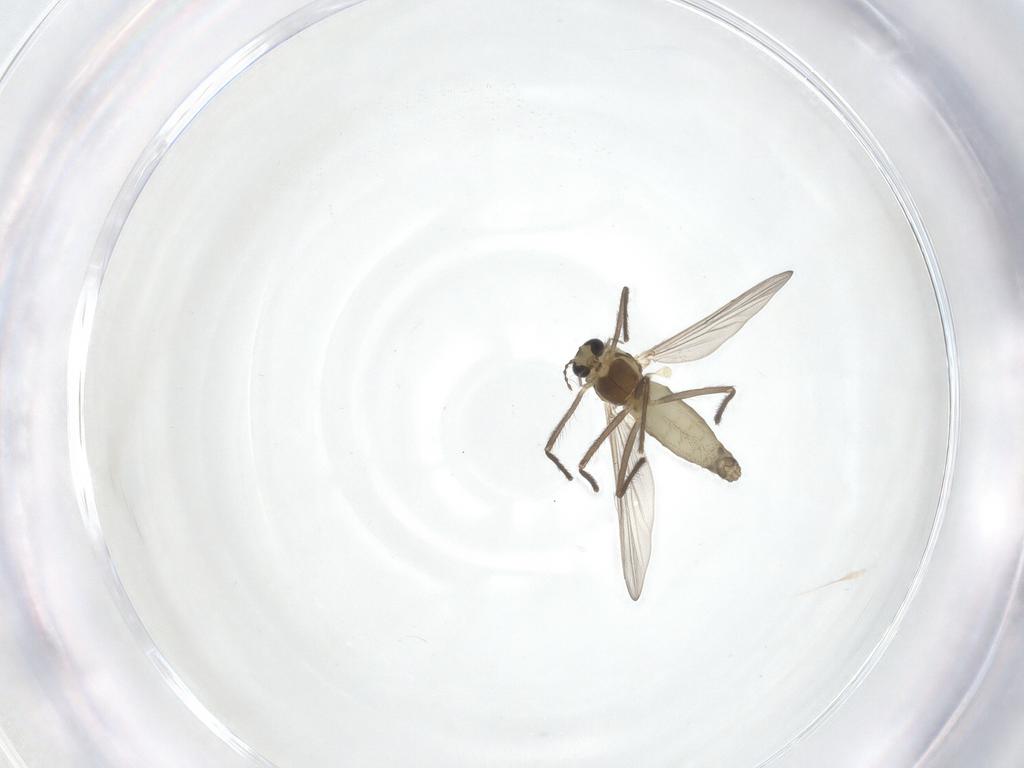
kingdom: Animalia
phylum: Arthropoda
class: Insecta
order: Diptera
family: Chironomidae
